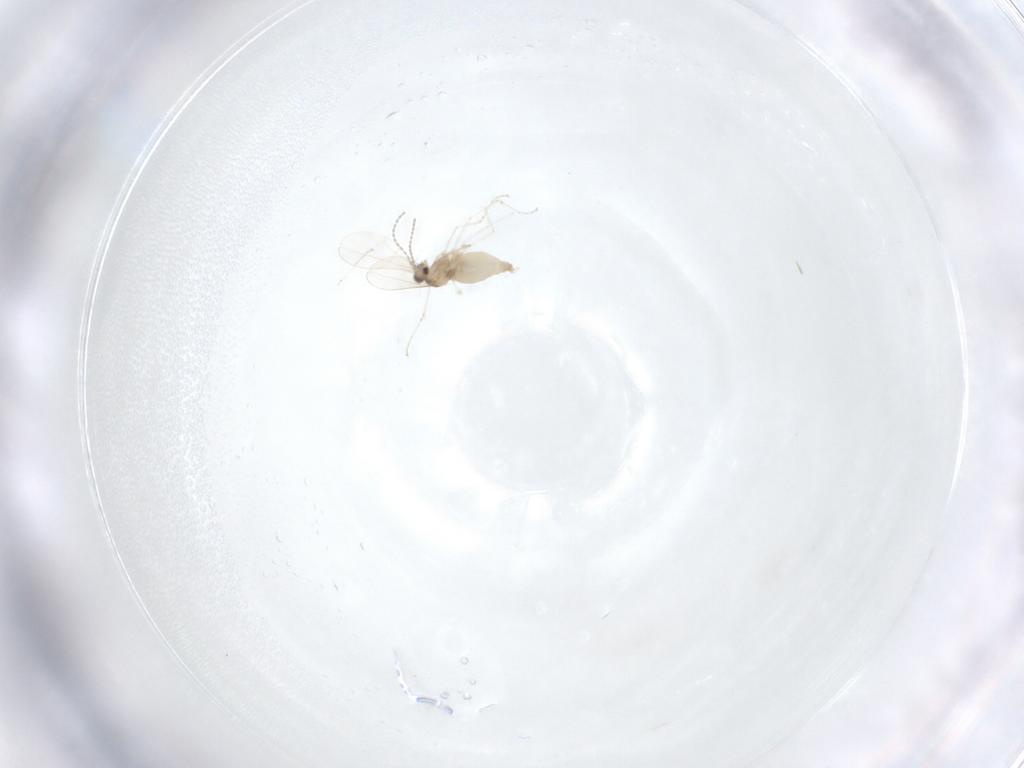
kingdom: Animalia
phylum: Arthropoda
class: Insecta
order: Diptera
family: Cecidomyiidae
